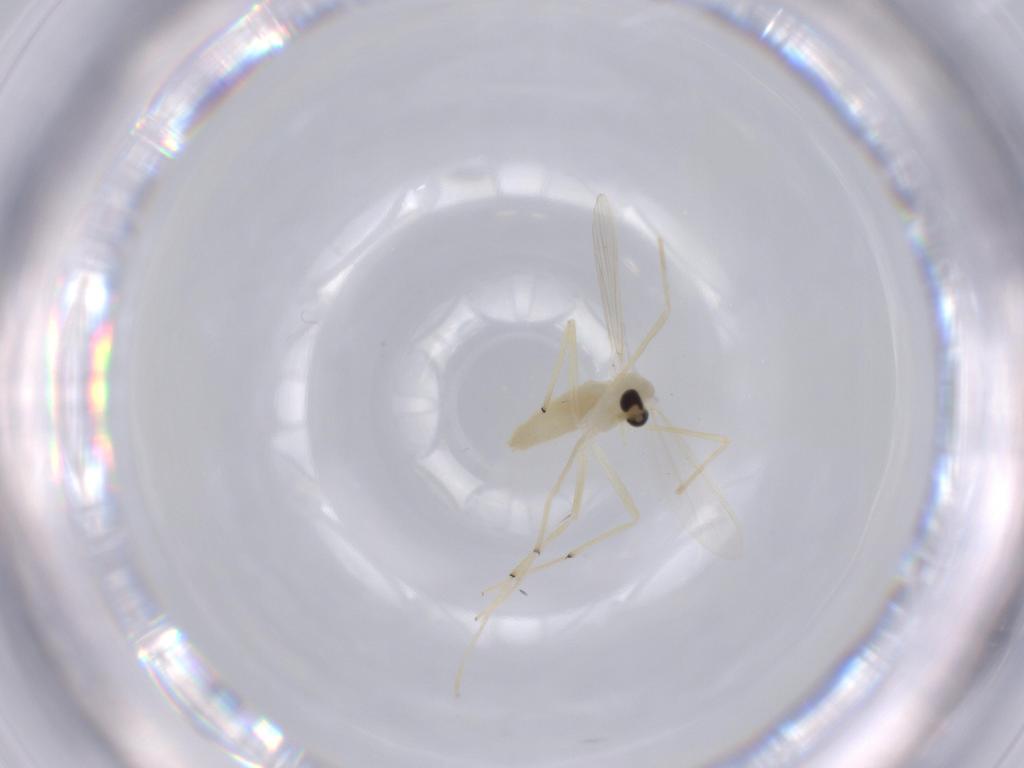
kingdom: Animalia
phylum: Arthropoda
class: Insecta
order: Diptera
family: Chironomidae
